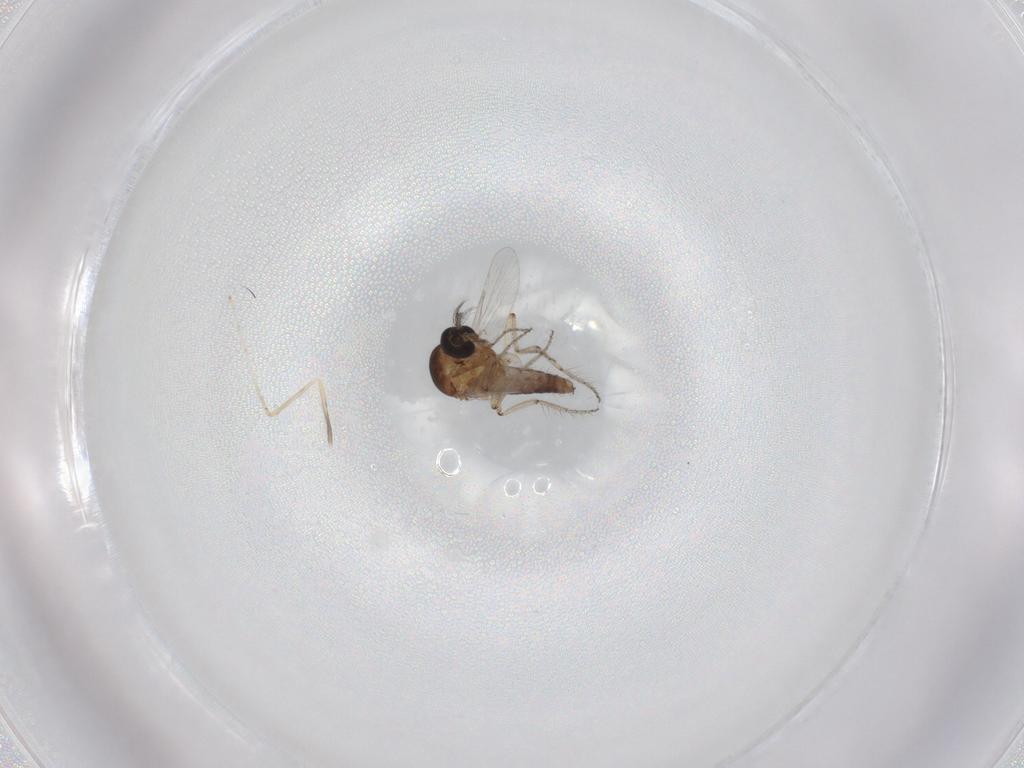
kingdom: Animalia
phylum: Arthropoda
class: Insecta
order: Diptera
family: Ceratopogonidae
